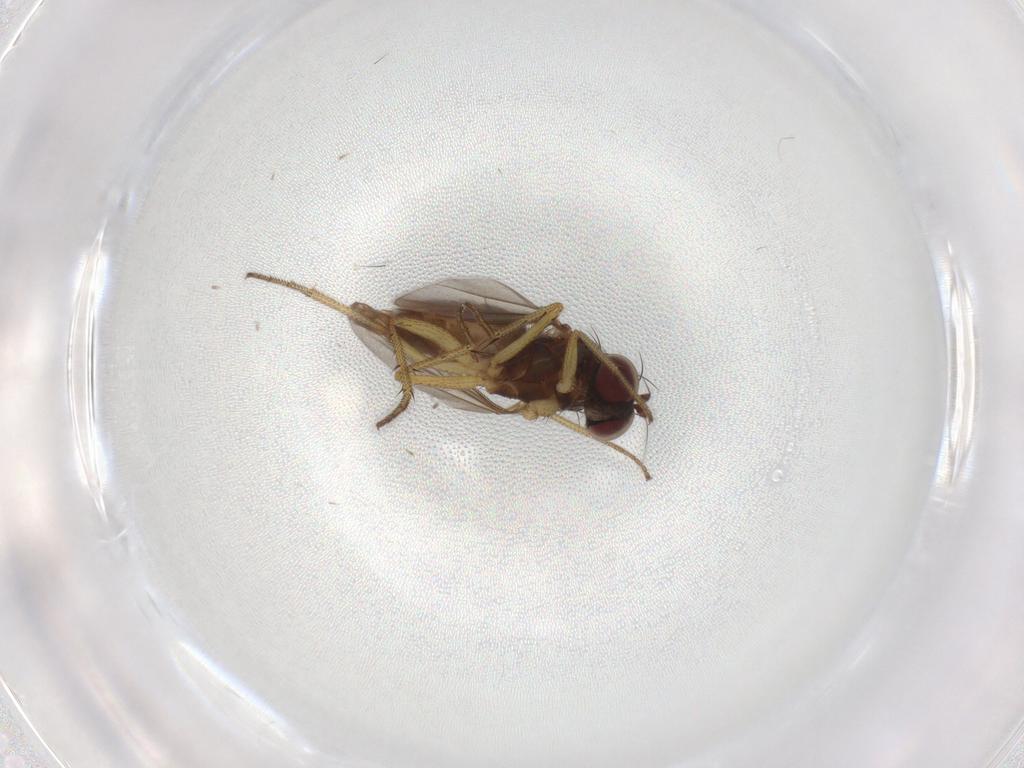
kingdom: Animalia
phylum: Arthropoda
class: Insecta
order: Diptera
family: Dolichopodidae
